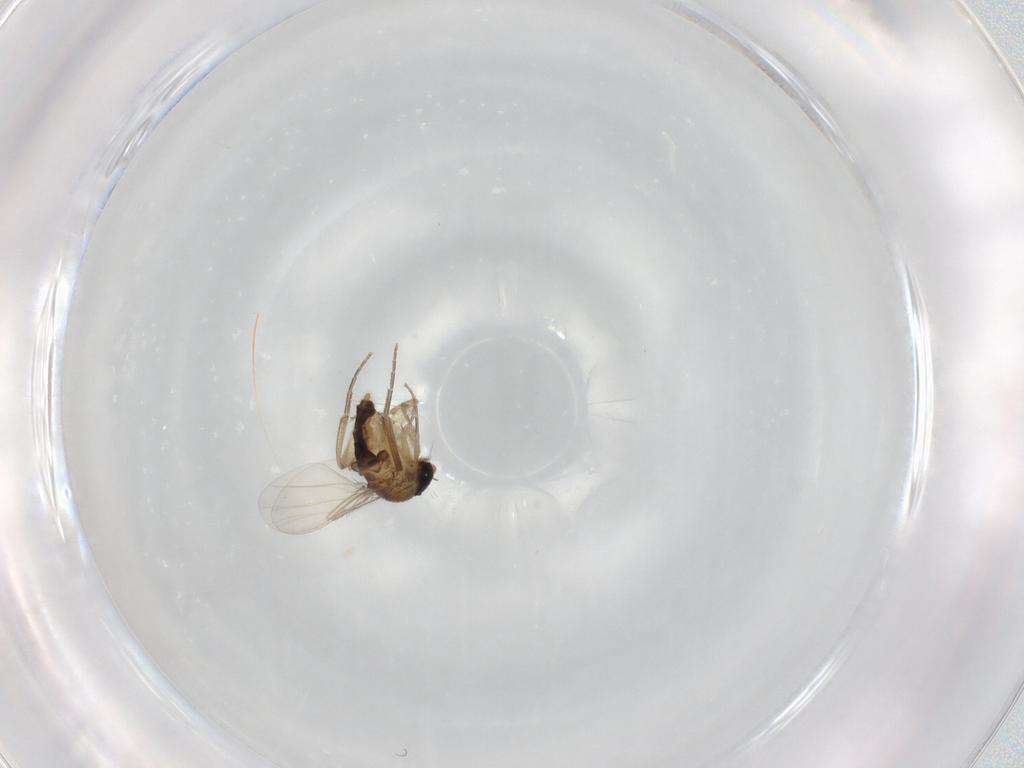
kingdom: Animalia
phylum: Arthropoda
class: Insecta
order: Diptera
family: Phoridae
